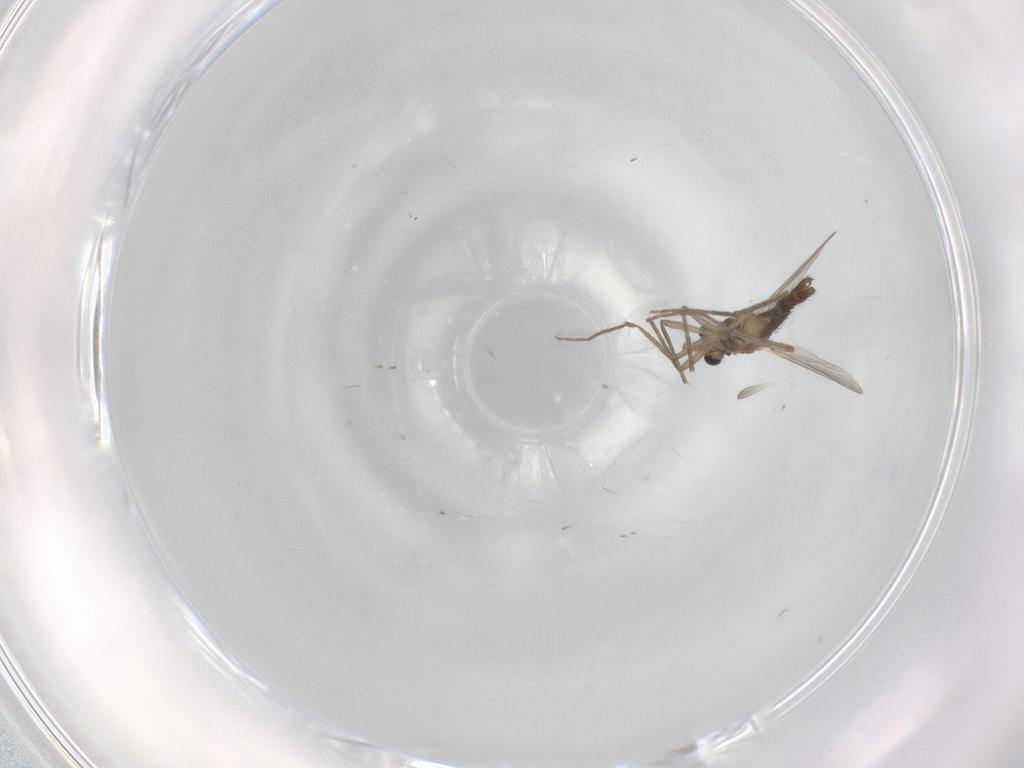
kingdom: Animalia
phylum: Arthropoda
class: Insecta
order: Diptera
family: Chironomidae
